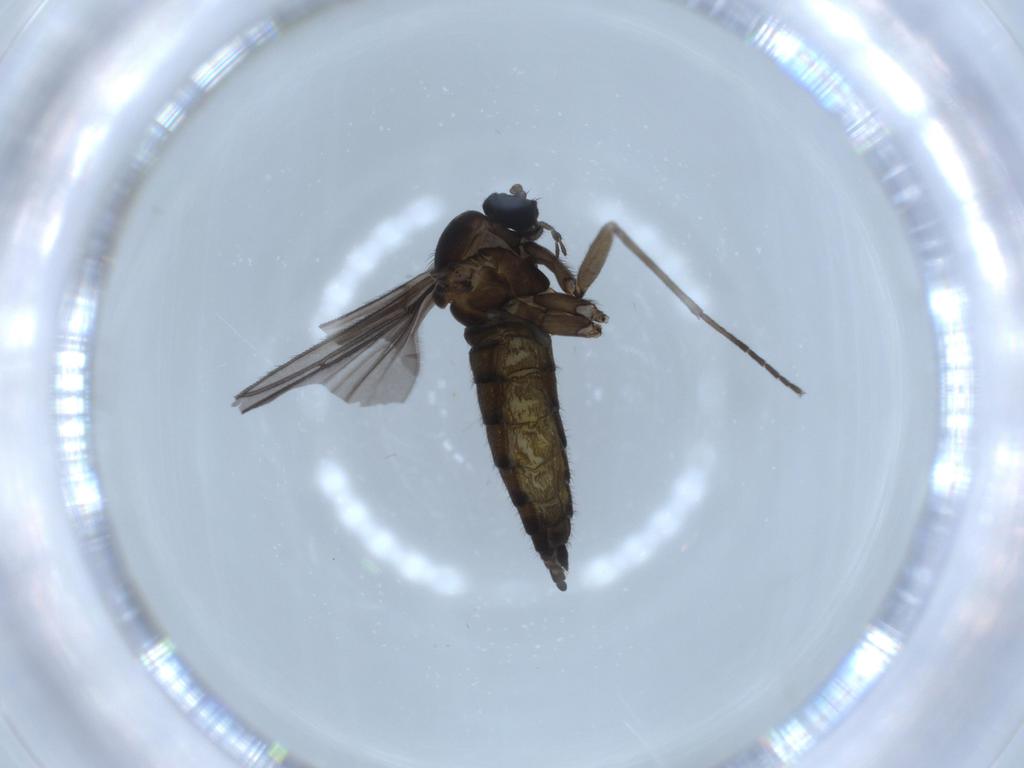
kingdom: Animalia
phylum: Arthropoda
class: Insecta
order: Diptera
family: Sciaridae
